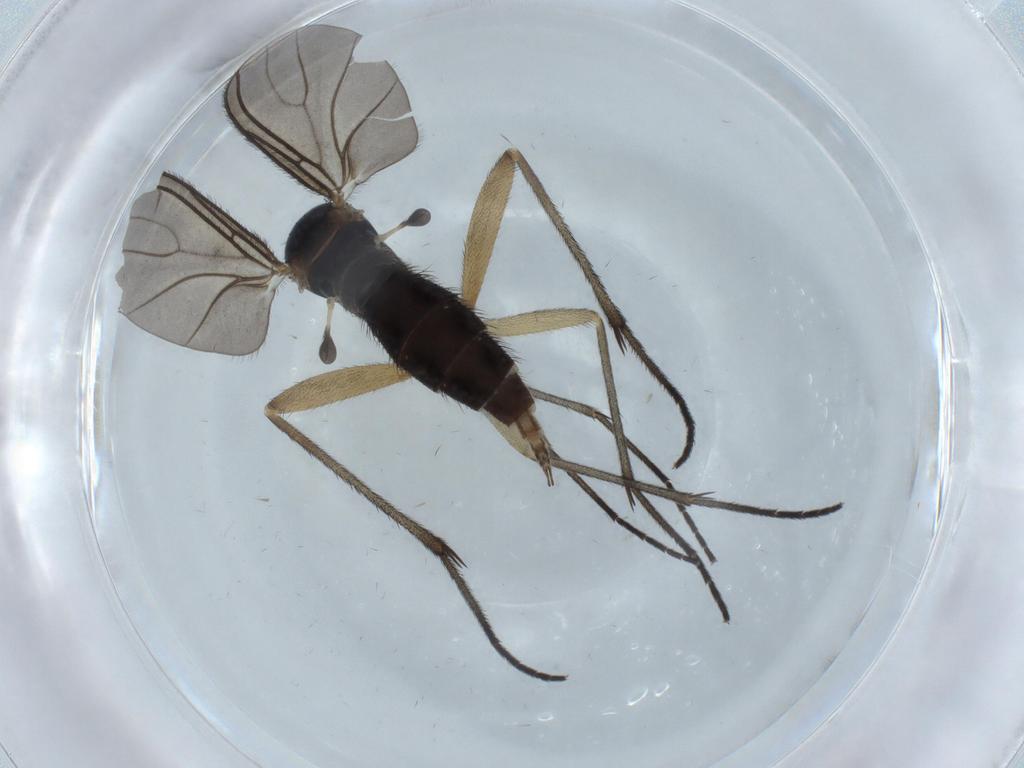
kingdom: Animalia
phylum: Arthropoda
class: Insecta
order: Diptera
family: Sciaridae
